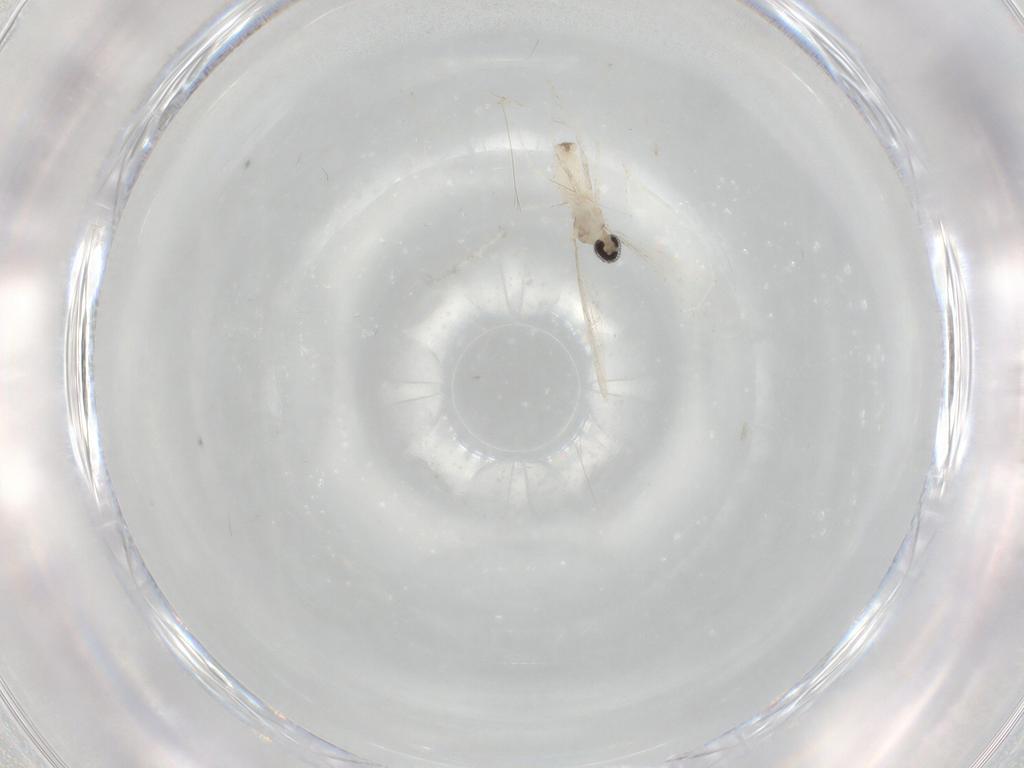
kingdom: Animalia
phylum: Arthropoda
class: Insecta
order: Diptera
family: Cecidomyiidae
